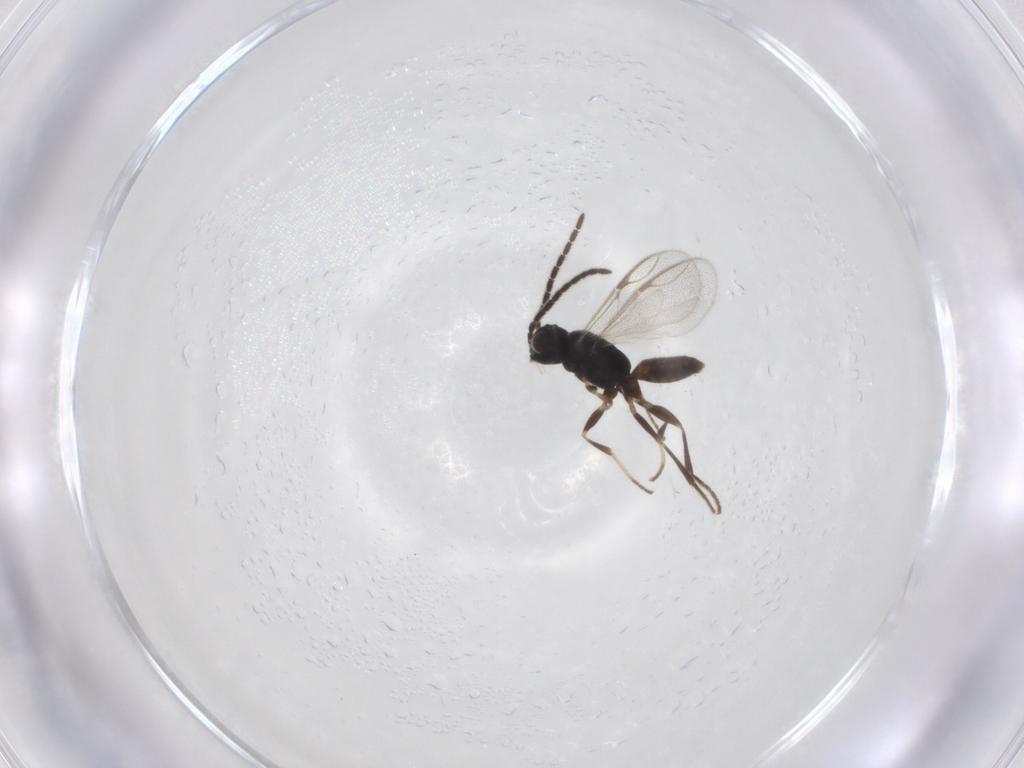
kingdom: Animalia
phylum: Arthropoda
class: Insecta
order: Hymenoptera
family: Dryinidae
